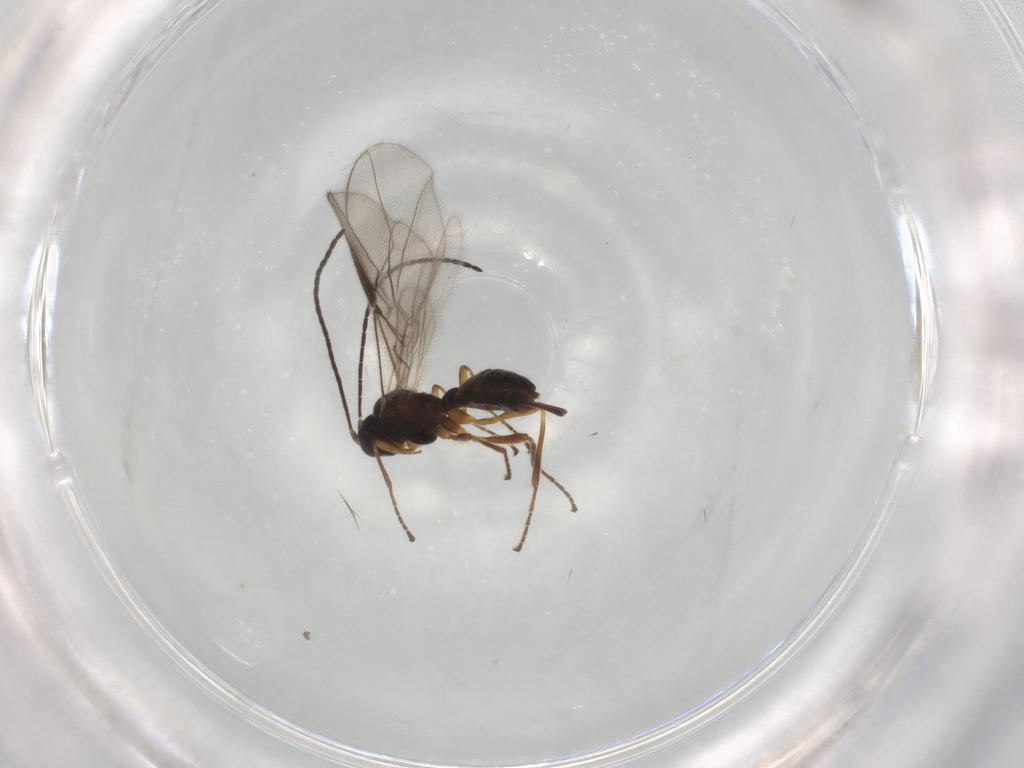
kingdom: Animalia
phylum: Arthropoda
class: Insecta
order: Hymenoptera
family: Braconidae
